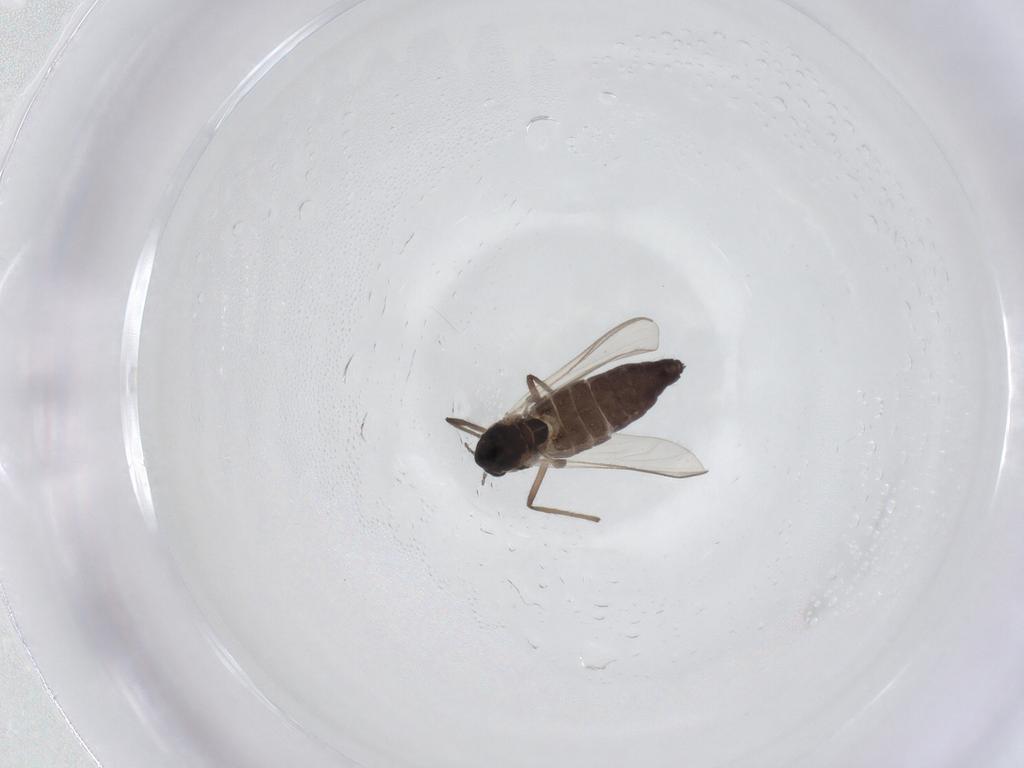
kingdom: Animalia
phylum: Arthropoda
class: Insecta
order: Diptera
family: Chironomidae
